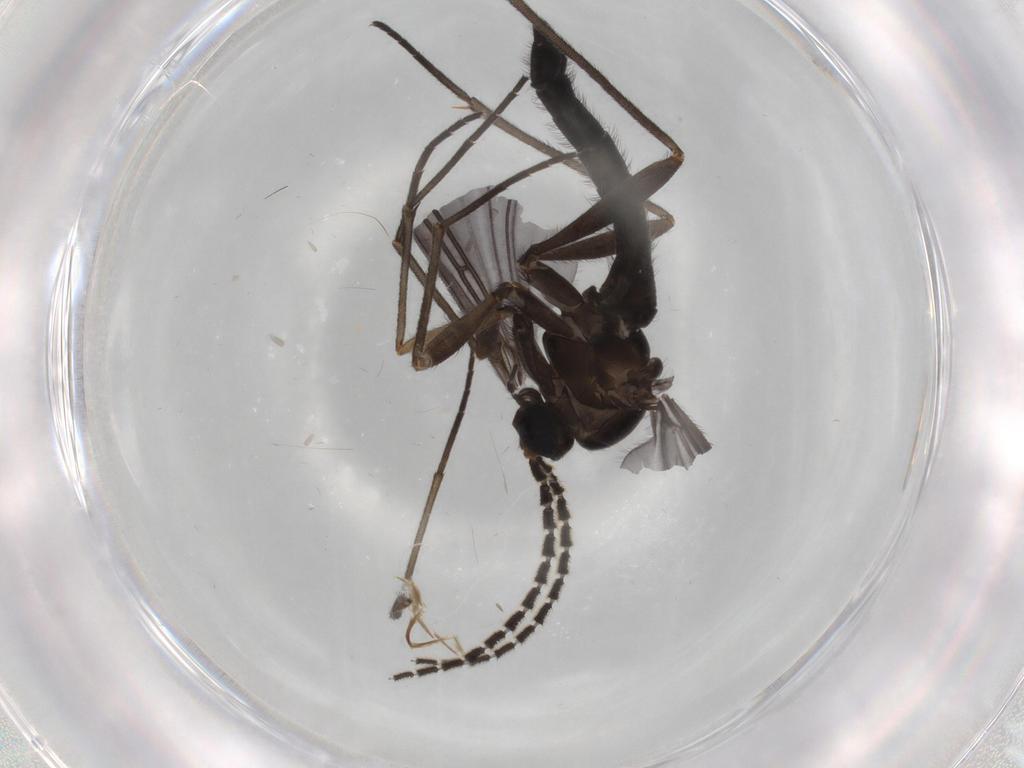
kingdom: Animalia
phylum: Arthropoda
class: Insecta
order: Diptera
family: Sciaridae
